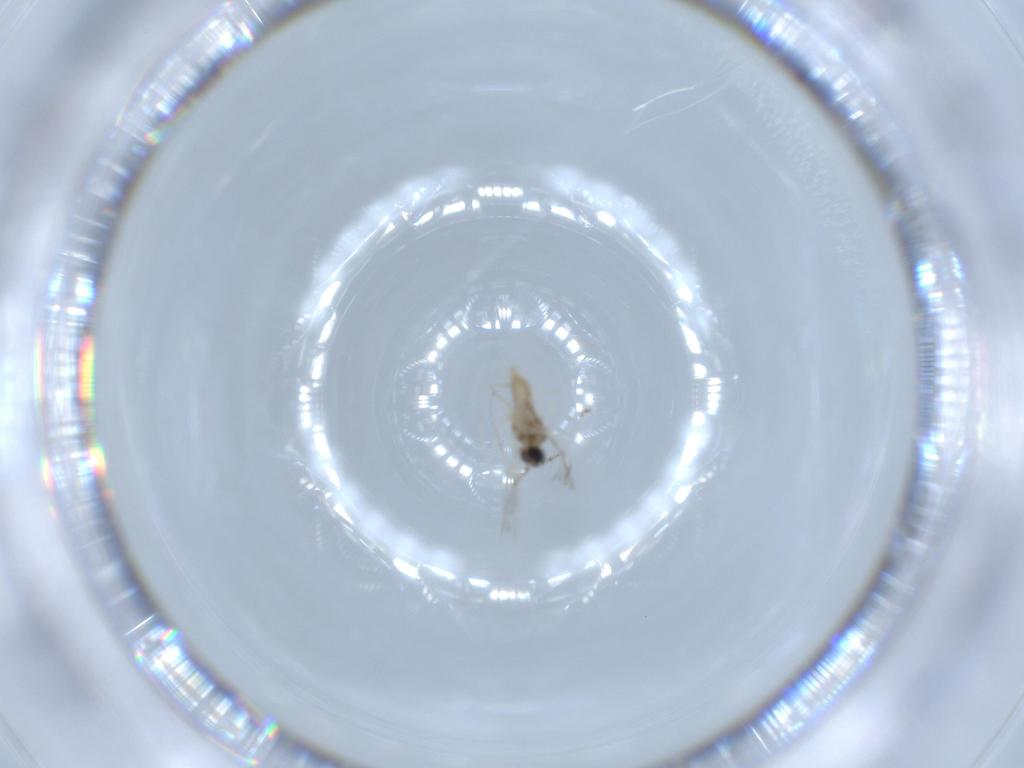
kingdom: Animalia
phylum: Arthropoda
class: Insecta
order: Diptera
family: Cecidomyiidae
